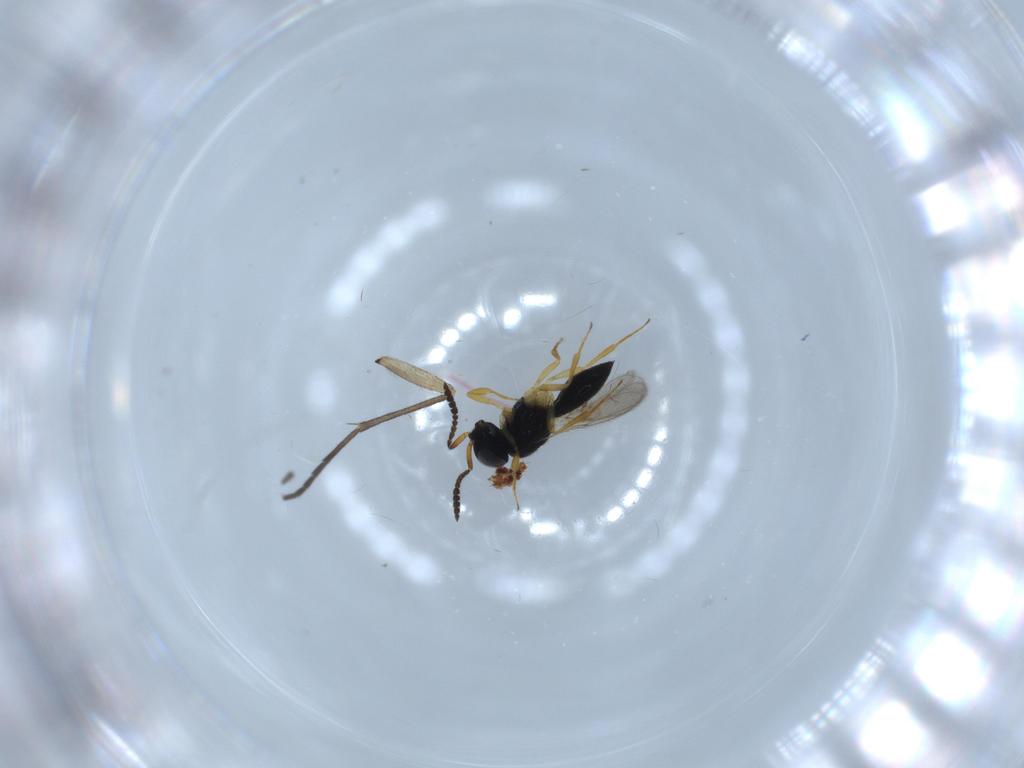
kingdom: Animalia
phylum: Arthropoda
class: Insecta
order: Hymenoptera
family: Scelionidae
